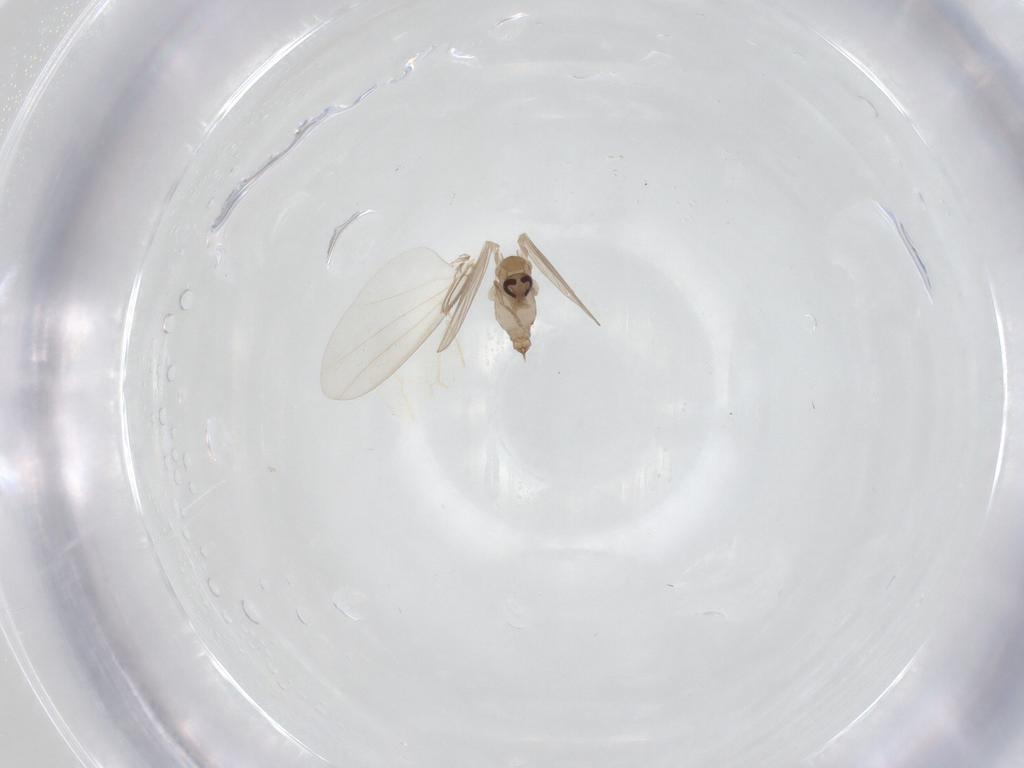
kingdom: Animalia
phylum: Arthropoda
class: Insecta
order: Diptera
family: Phoridae
